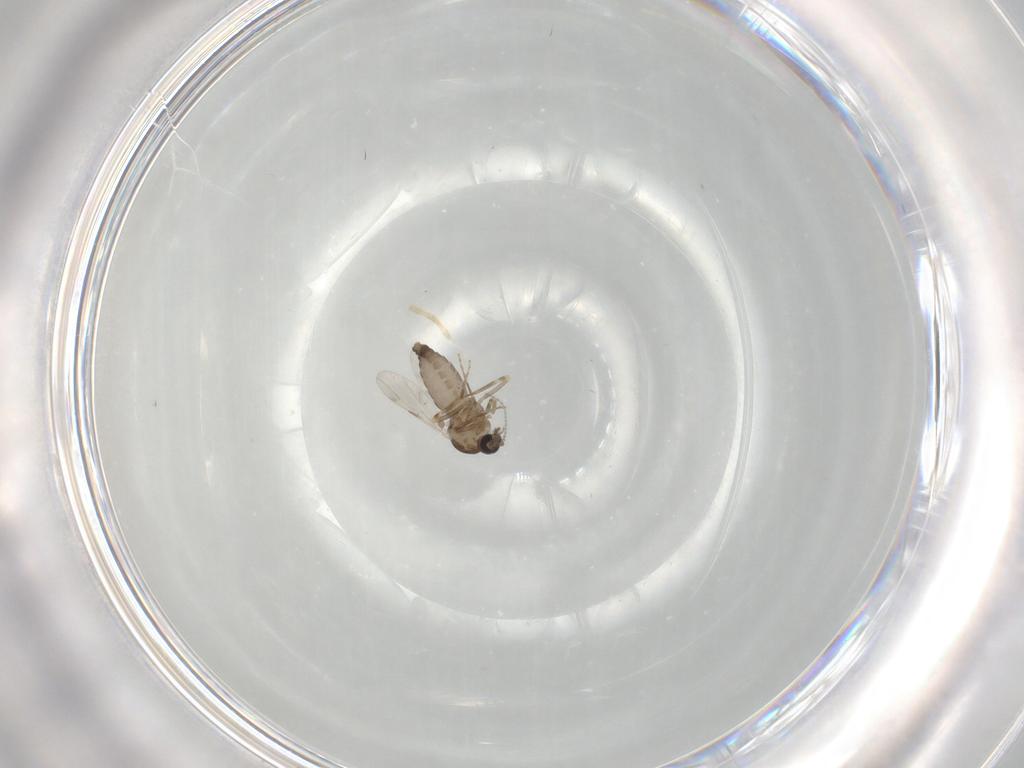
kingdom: Animalia
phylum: Arthropoda
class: Insecta
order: Diptera
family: Ceratopogonidae
